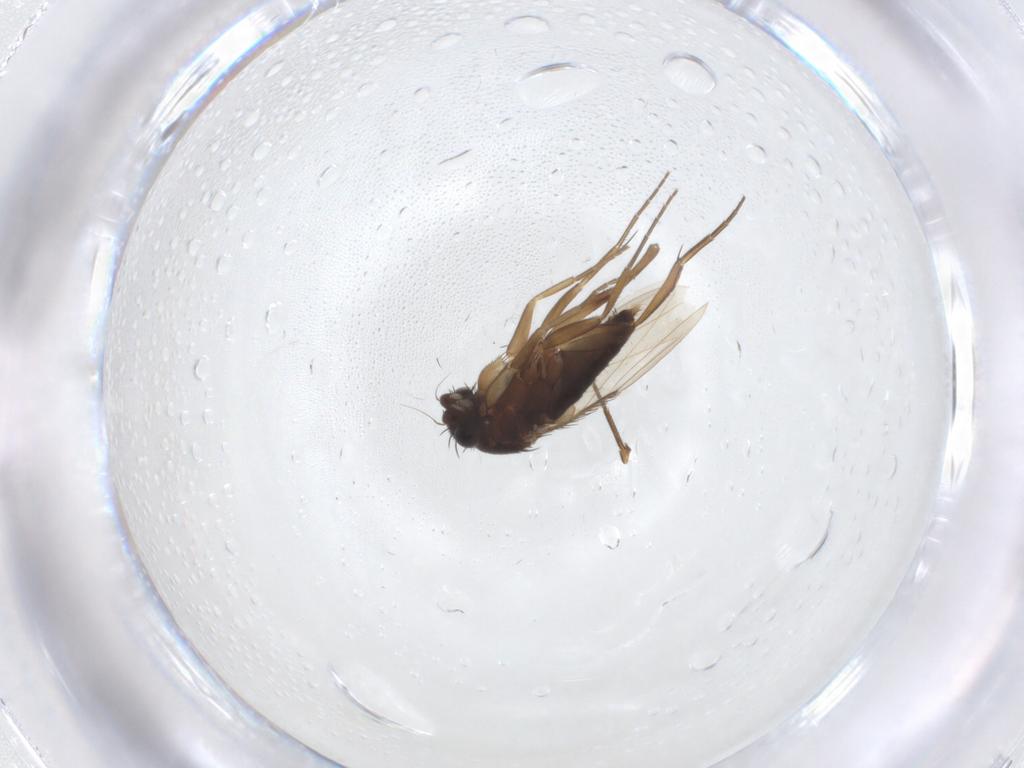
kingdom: Animalia
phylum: Arthropoda
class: Insecta
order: Diptera
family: Phoridae
